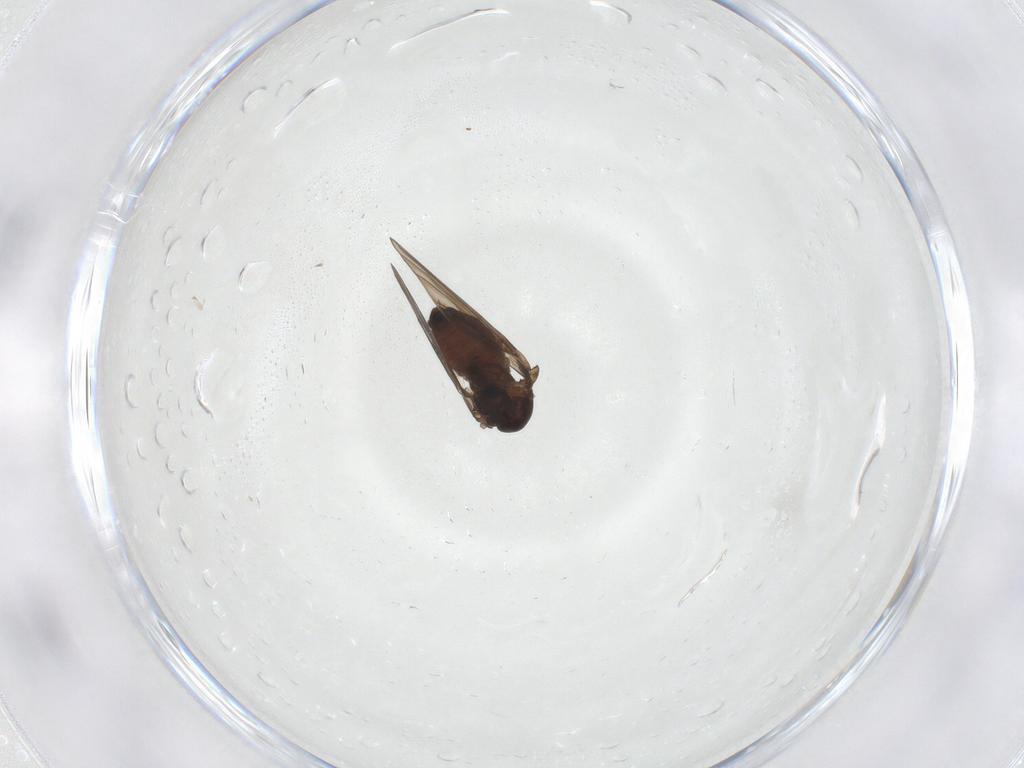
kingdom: Animalia
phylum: Arthropoda
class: Insecta
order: Diptera
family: Psychodidae
